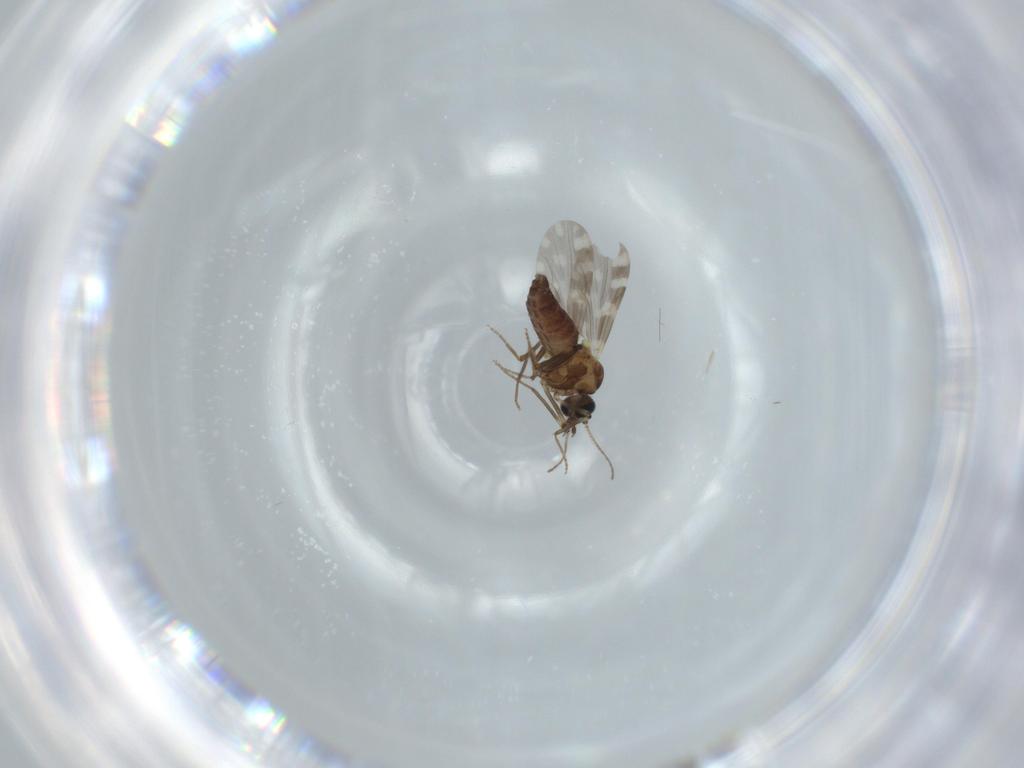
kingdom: Animalia
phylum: Arthropoda
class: Insecta
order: Diptera
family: Ceratopogonidae
